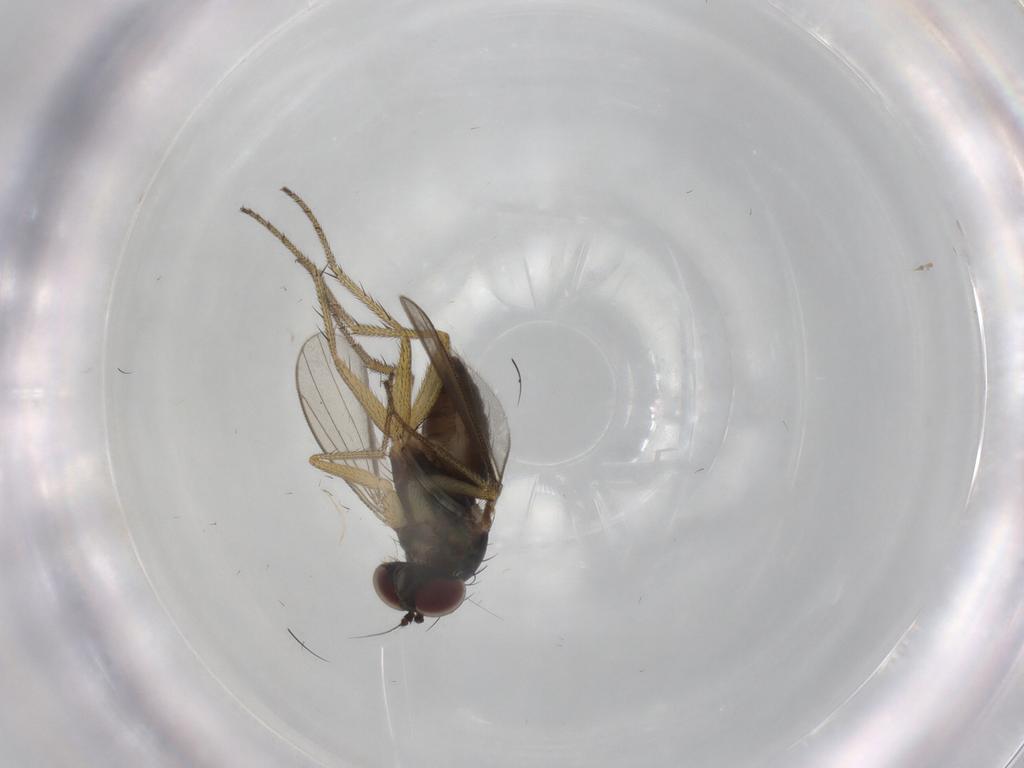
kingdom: Animalia
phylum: Arthropoda
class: Insecta
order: Diptera
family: Dolichopodidae
